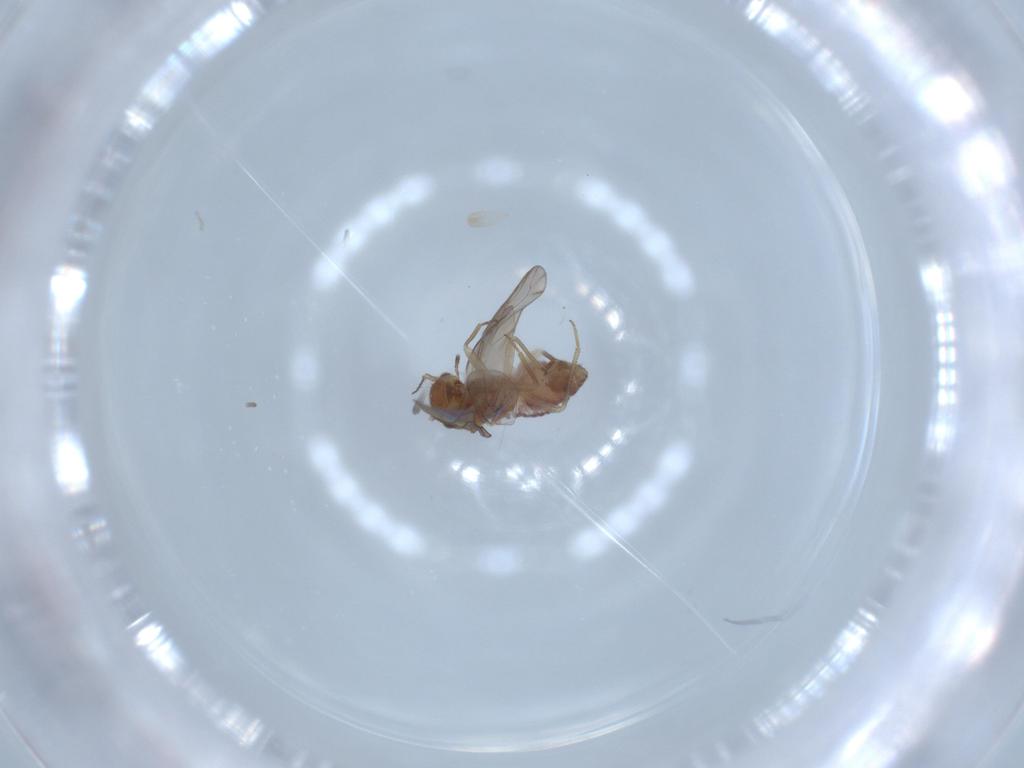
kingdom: Animalia
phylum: Arthropoda
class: Insecta
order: Psocodea
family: Ectopsocidae
